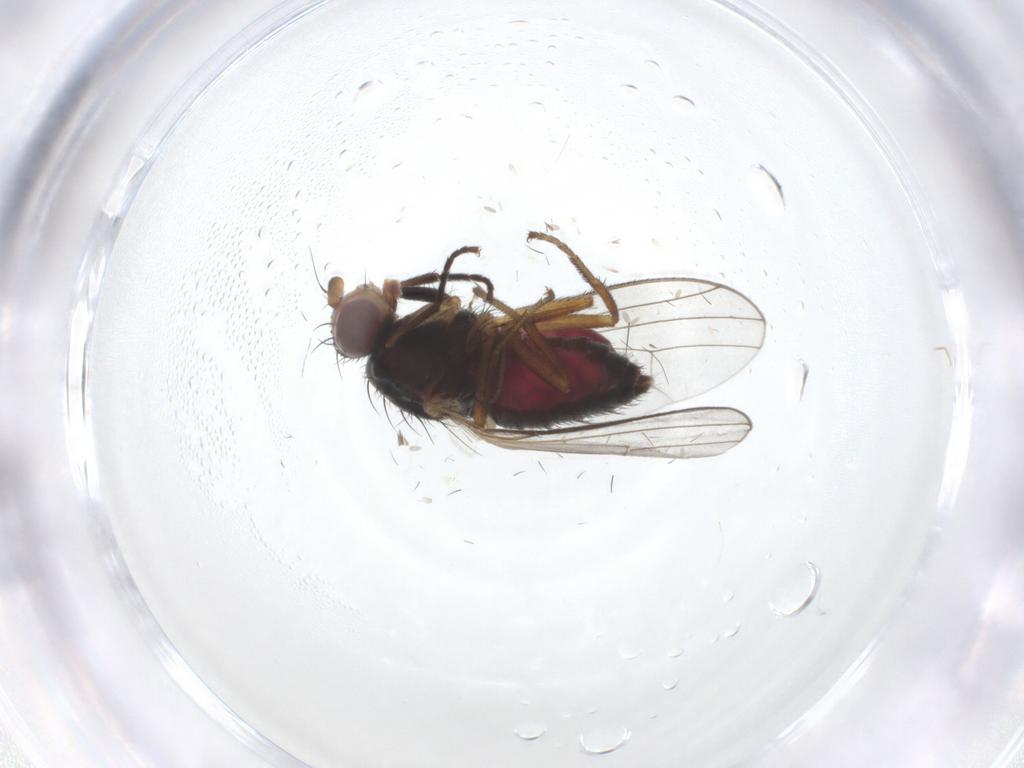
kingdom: Animalia
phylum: Arthropoda
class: Insecta
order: Diptera
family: Heleomyzidae
